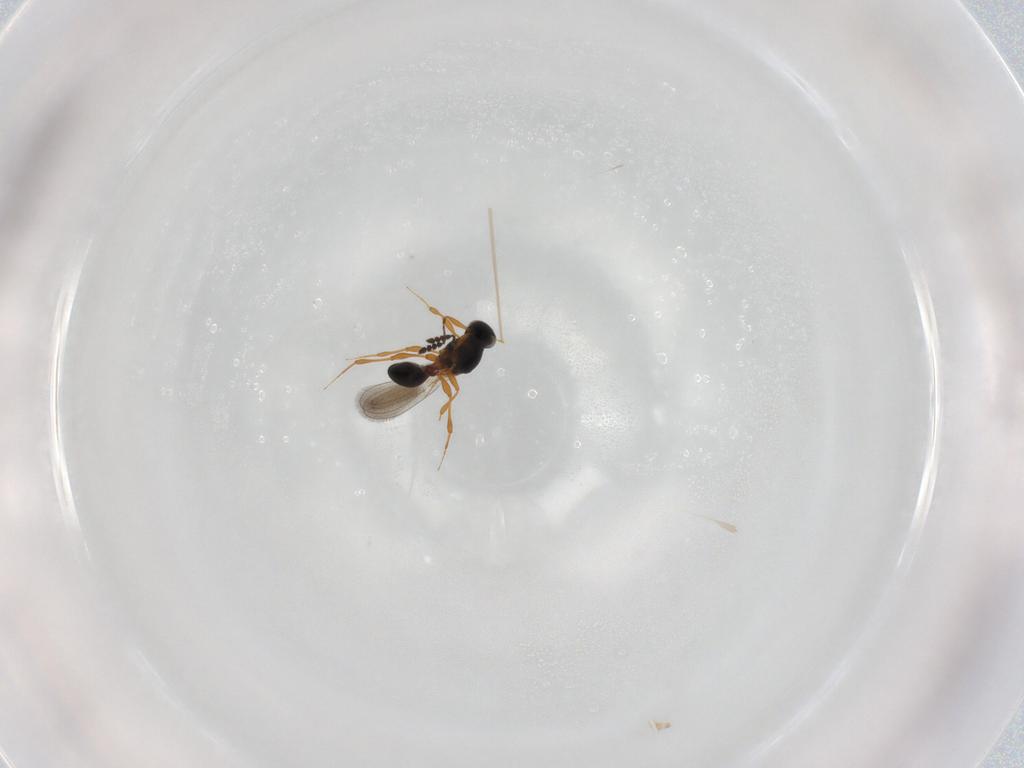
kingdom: Animalia
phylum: Arthropoda
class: Insecta
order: Hymenoptera
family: Platygastridae
